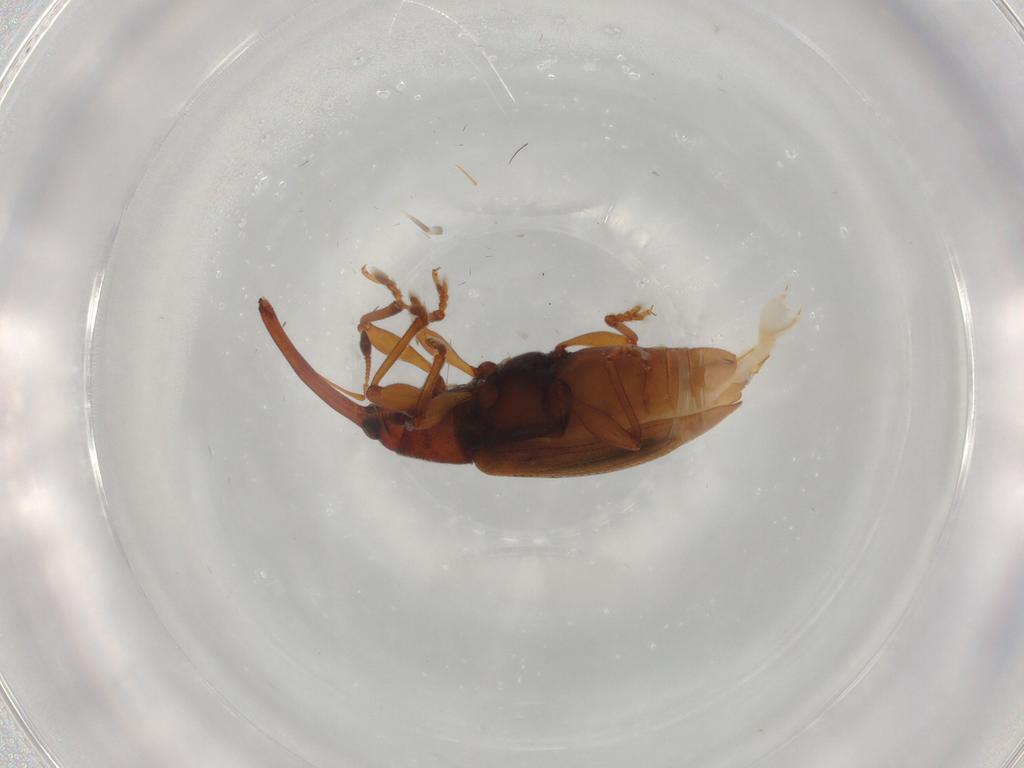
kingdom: Animalia
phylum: Arthropoda
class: Insecta
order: Coleoptera
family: Curculionidae
